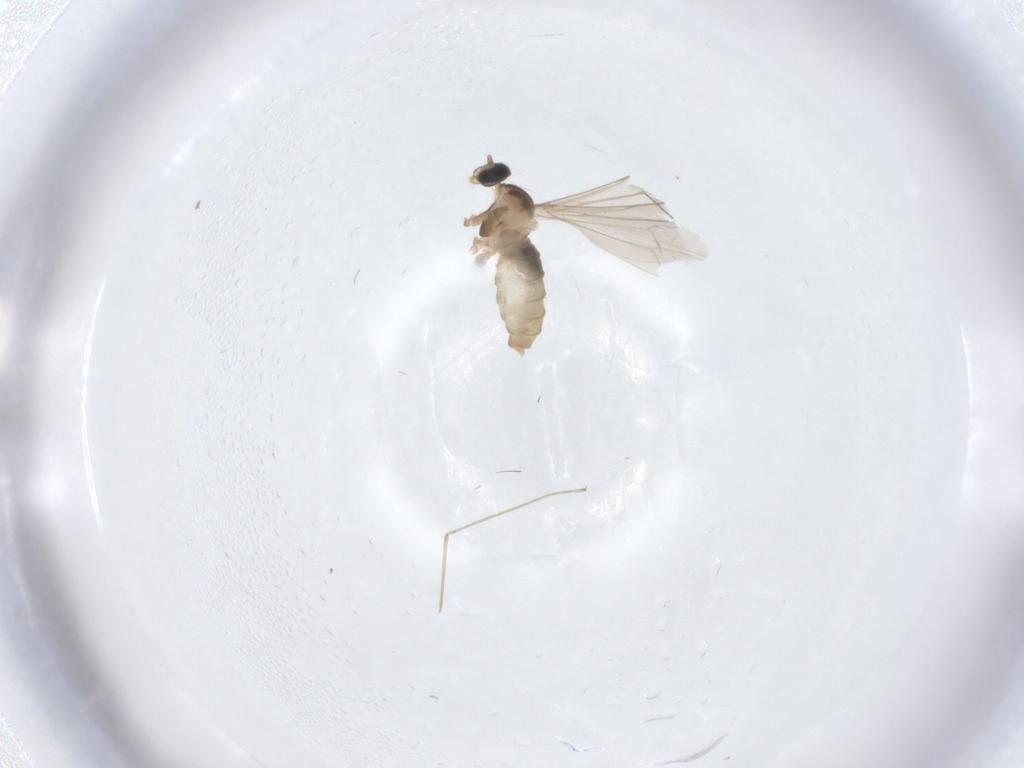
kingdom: Animalia
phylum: Arthropoda
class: Insecta
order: Diptera
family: Cecidomyiidae
